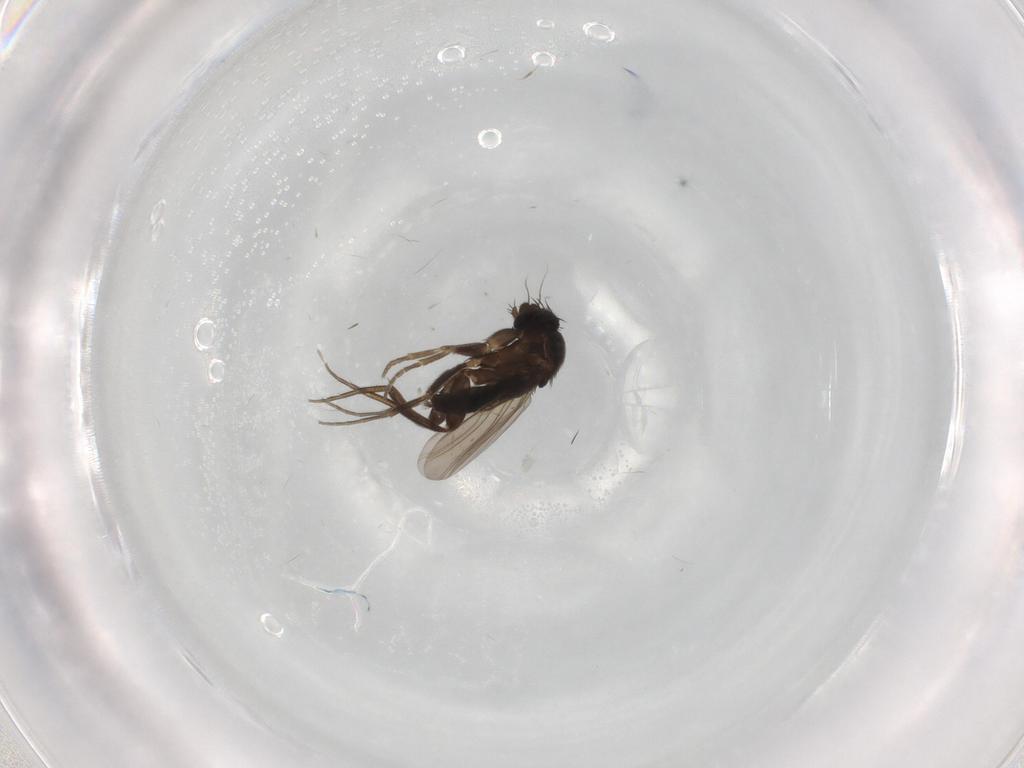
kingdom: Animalia
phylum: Arthropoda
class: Insecta
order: Diptera
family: Phoridae
